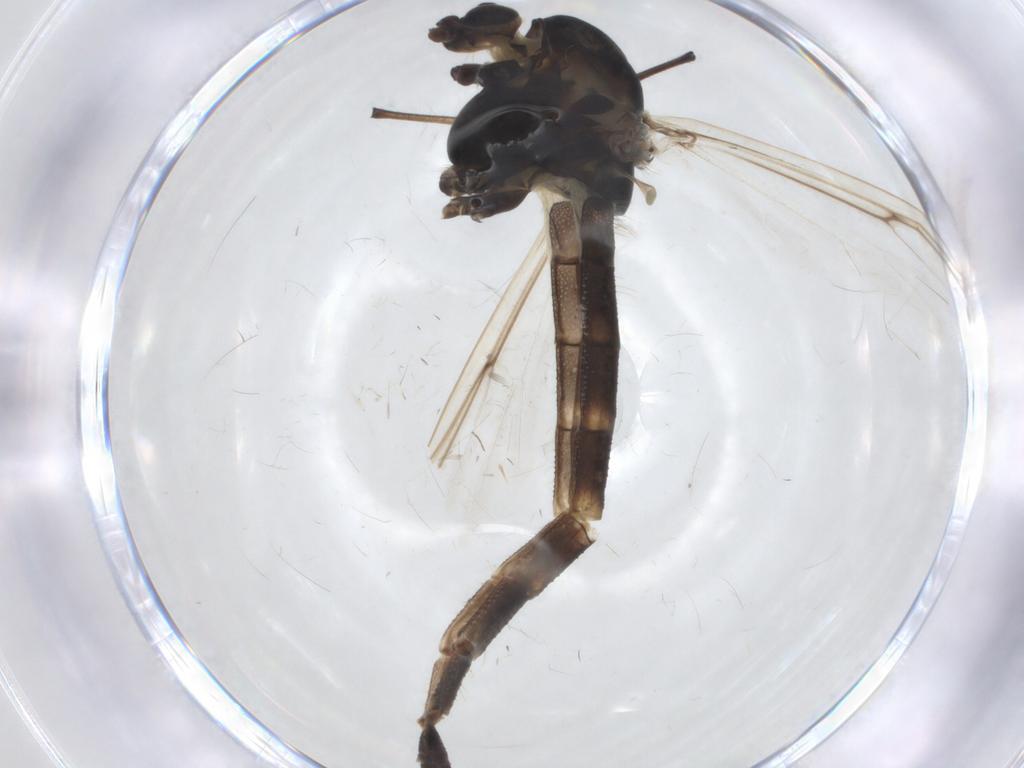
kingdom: Animalia
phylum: Arthropoda
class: Insecta
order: Diptera
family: Chironomidae
